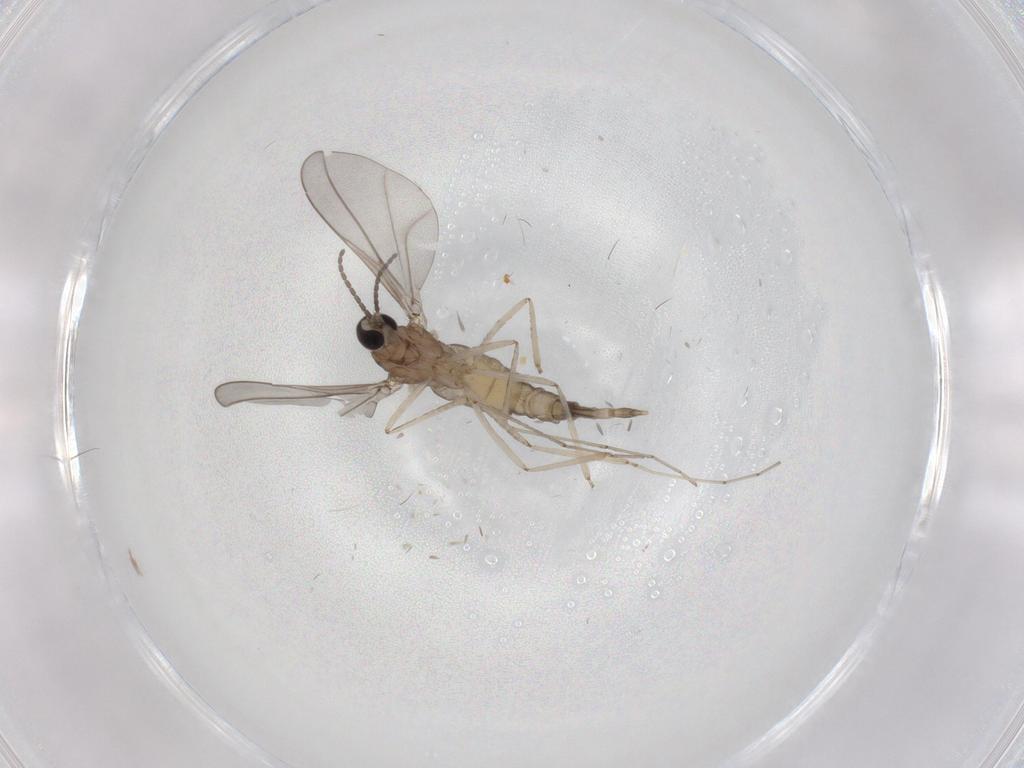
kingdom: Animalia
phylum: Arthropoda
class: Insecta
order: Diptera
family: Cecidomyiidae
